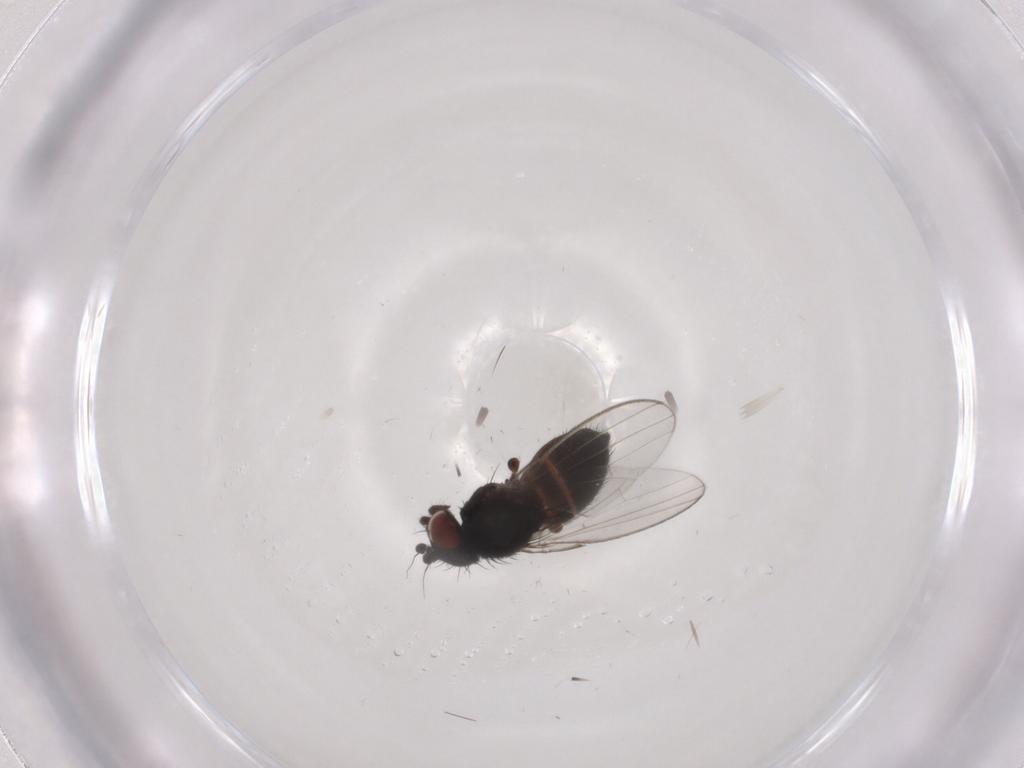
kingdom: Animalia
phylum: Arthropoda
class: Insecta
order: Diptera
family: Milichiidae
